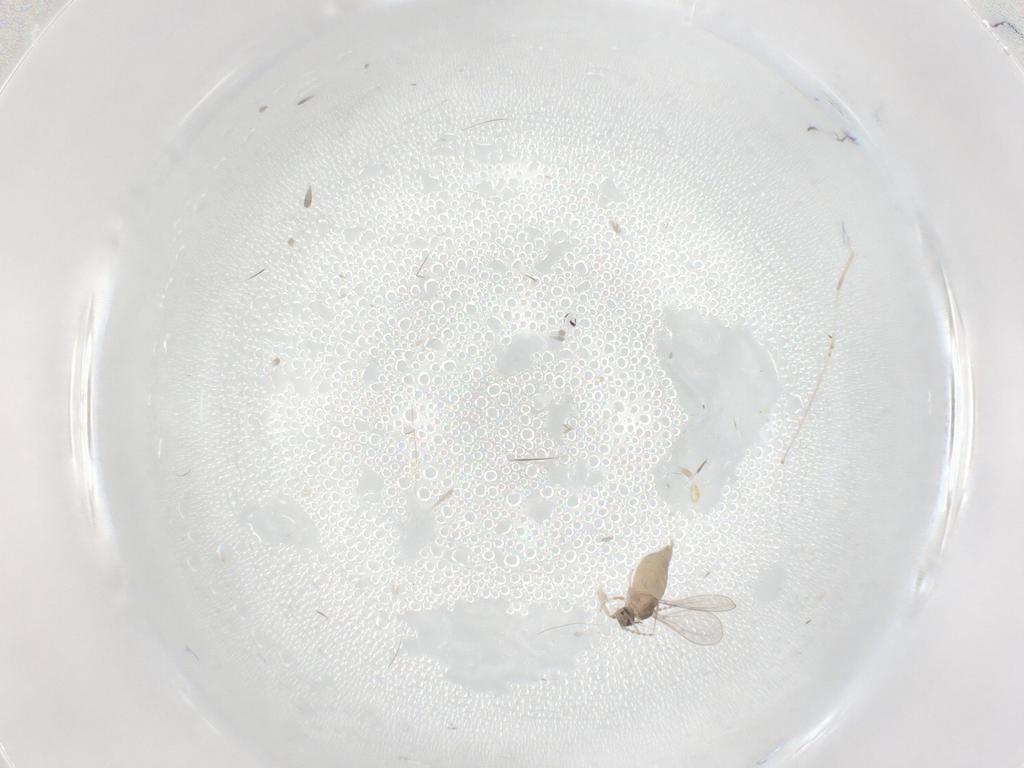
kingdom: Animalia
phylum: Arthropoda
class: Insecta
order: Diptera
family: Cecidomyiidae
